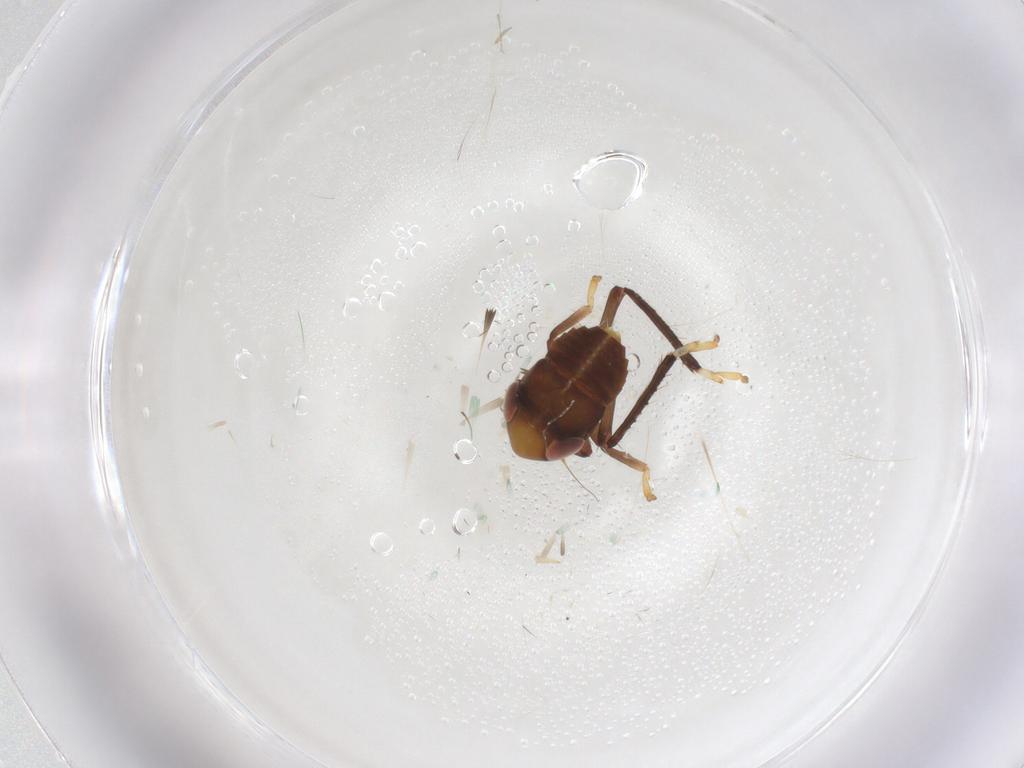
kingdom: Animalia
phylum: Arthropoda
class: Insecta
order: Hemiptera
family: Cicadellidae
